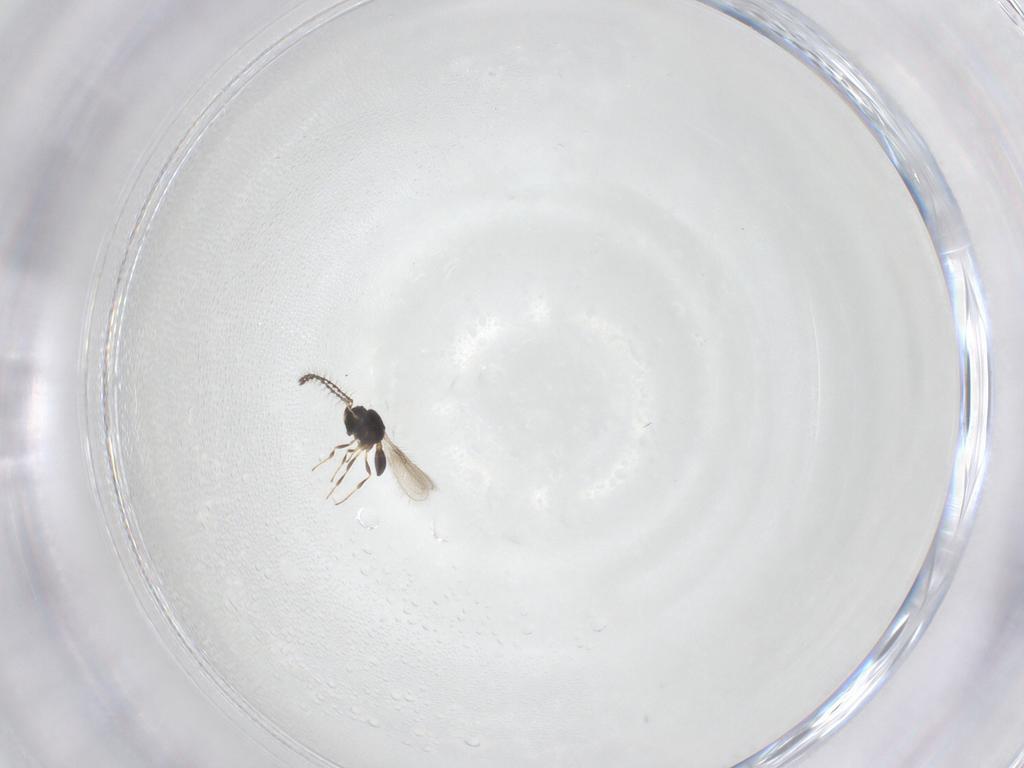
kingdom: Animalia
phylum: Arthropoda
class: Insecta
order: Hymenoptera
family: Scelionidae
